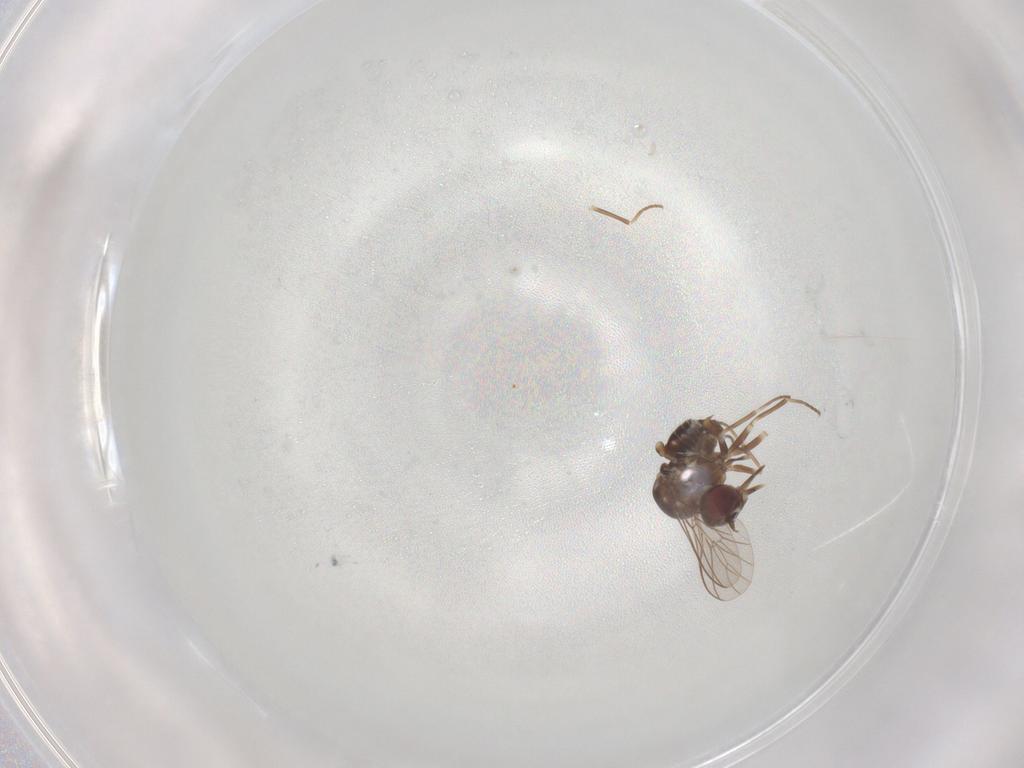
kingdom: Animalia
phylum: Arthropoda
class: Insecta
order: Diptera
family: Bombyliidae
